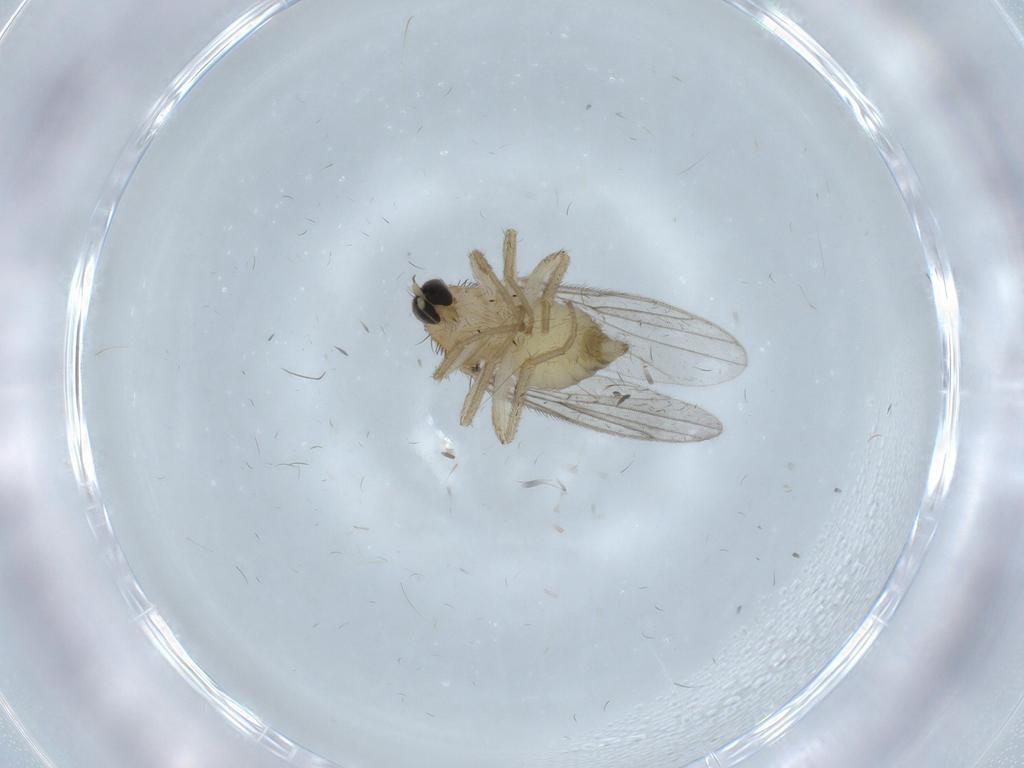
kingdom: Animalia
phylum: Arthropoda
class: Insecta
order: Diptera
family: Hybotidae
